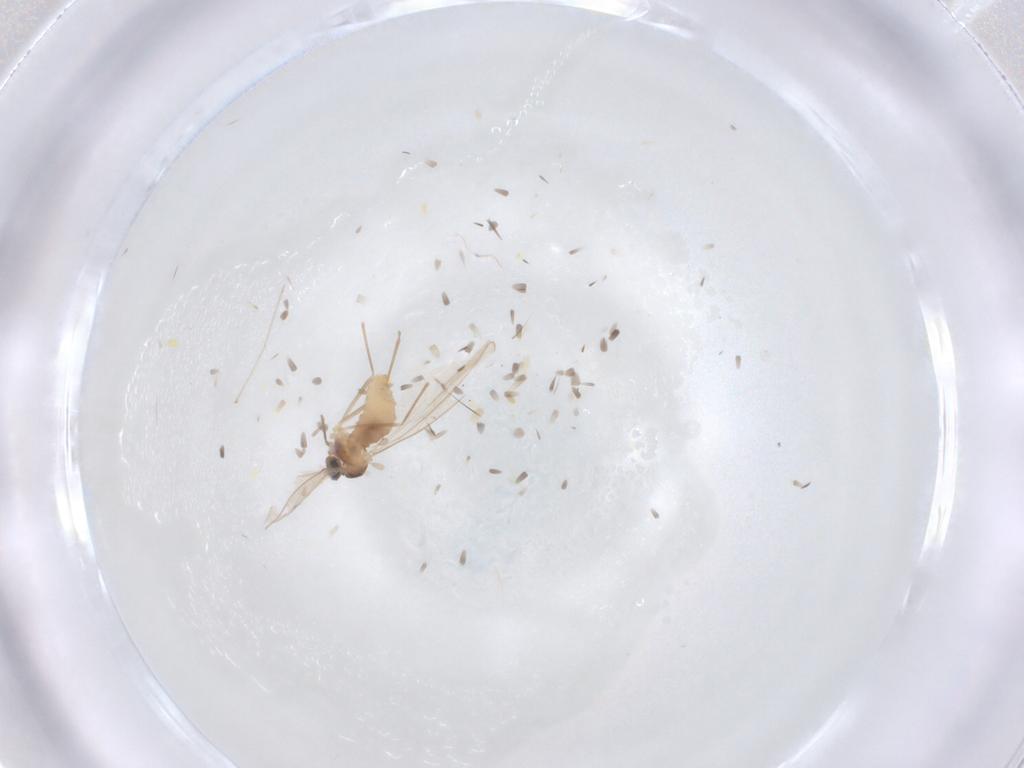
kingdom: Animalia
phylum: Arthropoda
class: Insecta
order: Diptera
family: Cecidomyiidae
